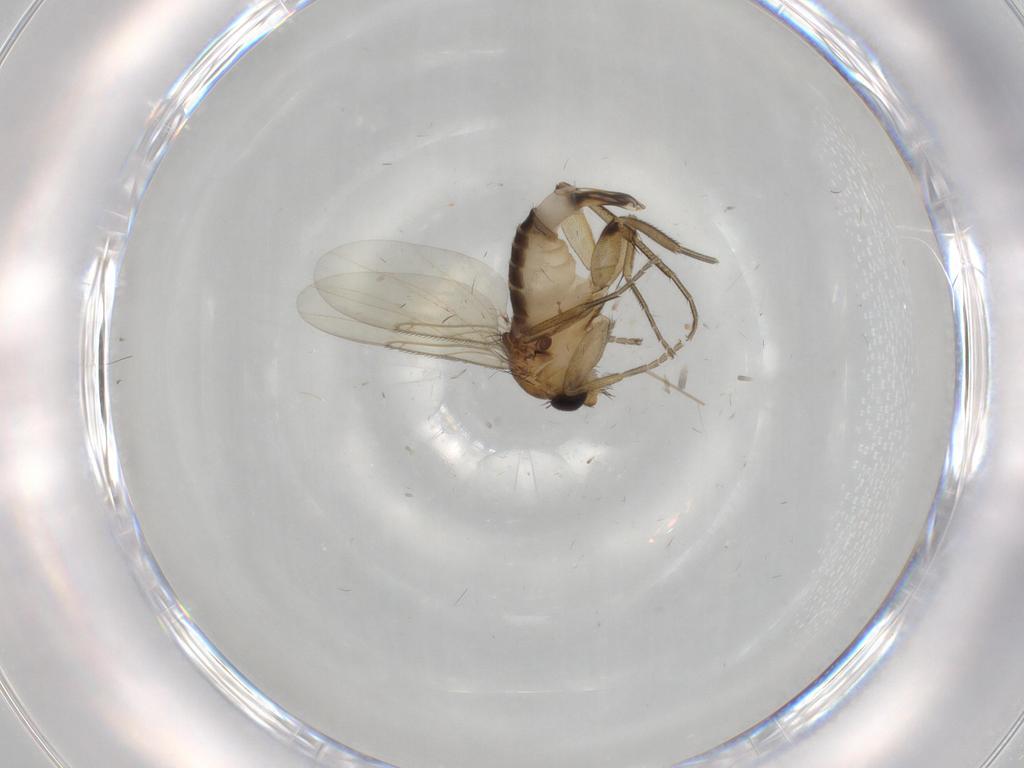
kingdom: Animalia
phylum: Arthropoda
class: Insecta
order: Diptera
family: Phoridae
